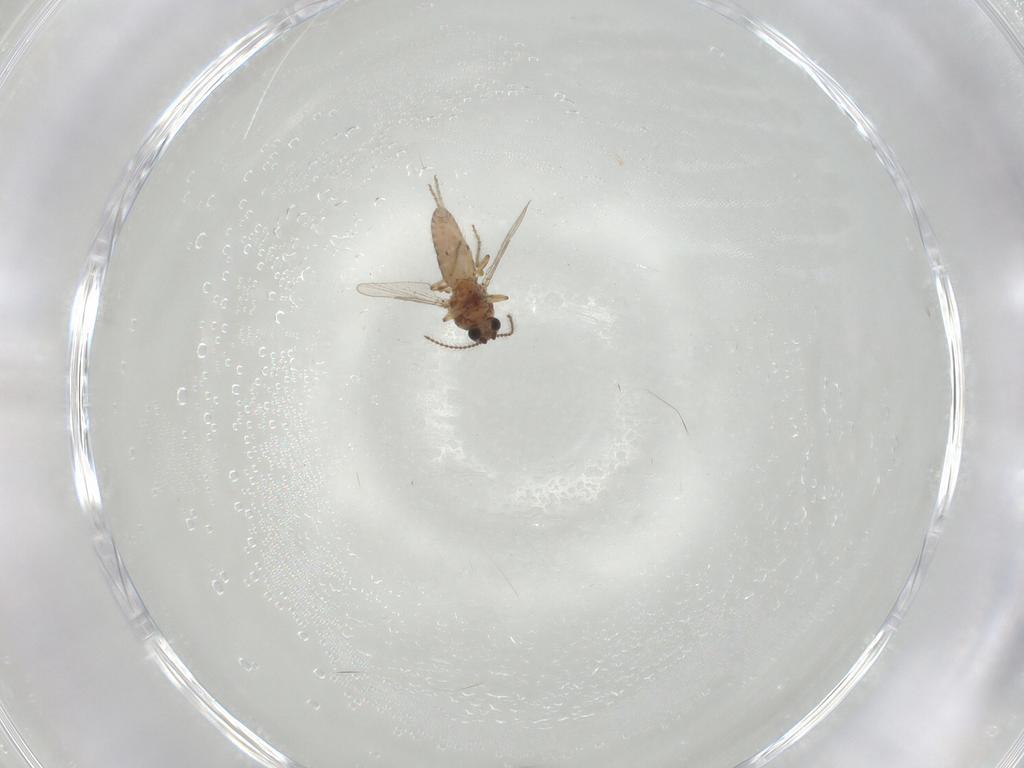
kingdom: Animalia
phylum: Arthropoda
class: Insecta
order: Diptera
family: Ceratopogonidae
